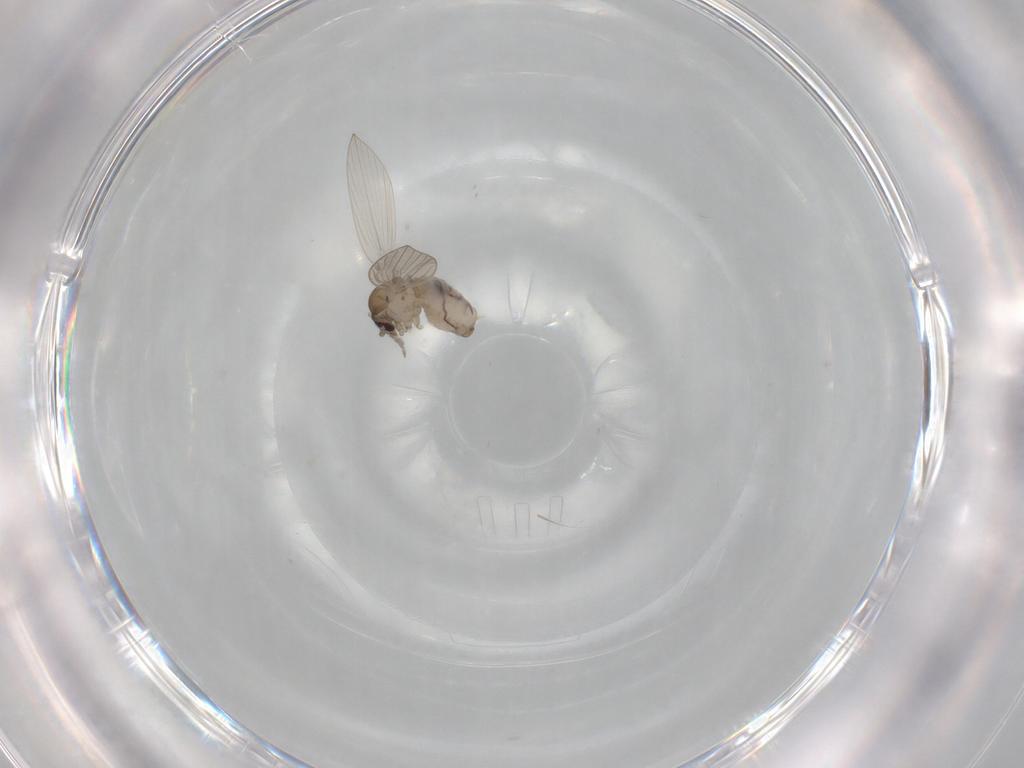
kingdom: Animalia
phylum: Arthropoda
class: Insecta
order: Diptera
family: Psychodidae
